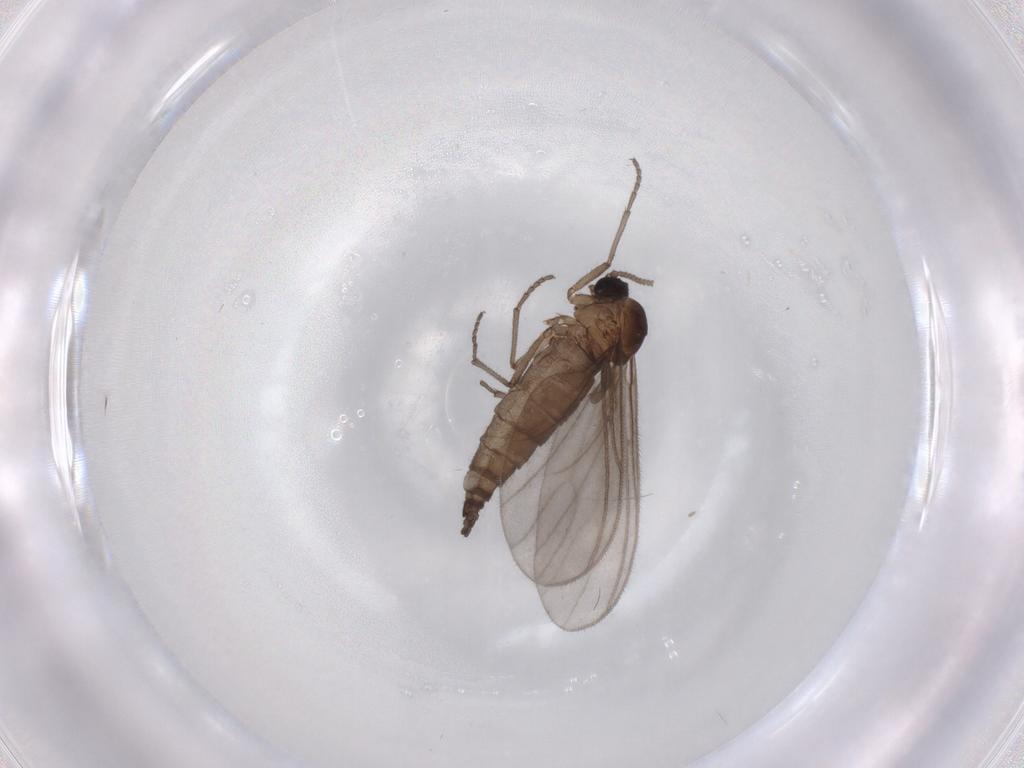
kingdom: Animalia
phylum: Arthropoda
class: Insecta
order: Diptera
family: Sciaridae
